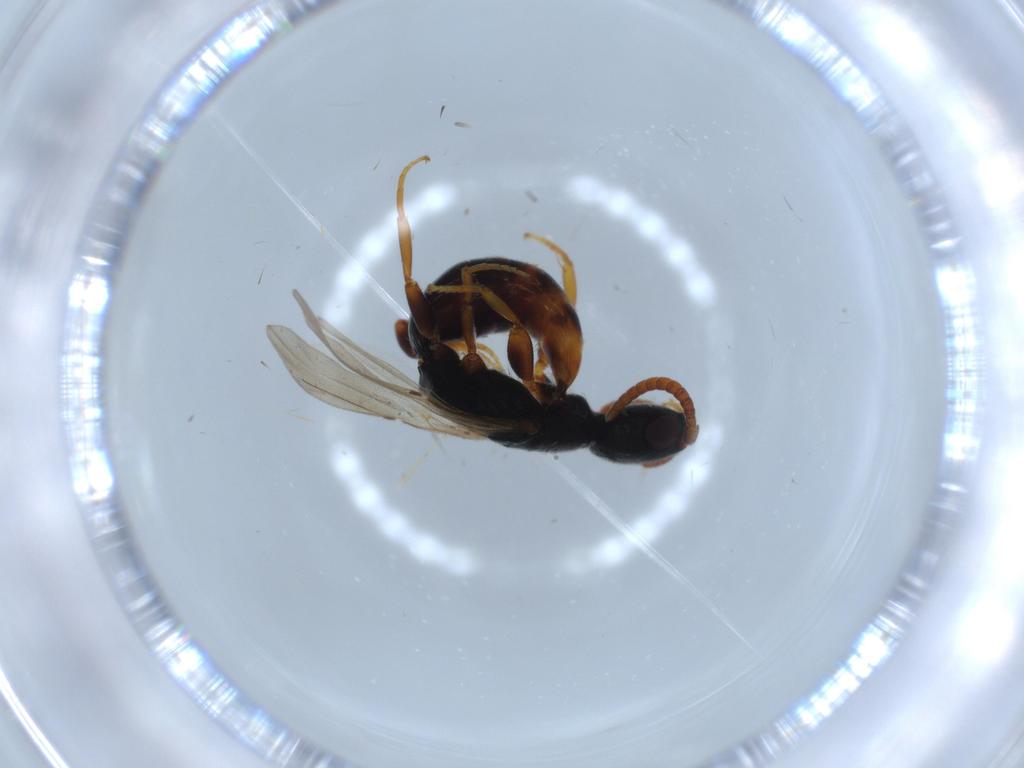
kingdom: Animalia
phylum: Arthropoda
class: Insecta
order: Hymenoptera
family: Bethylidae
